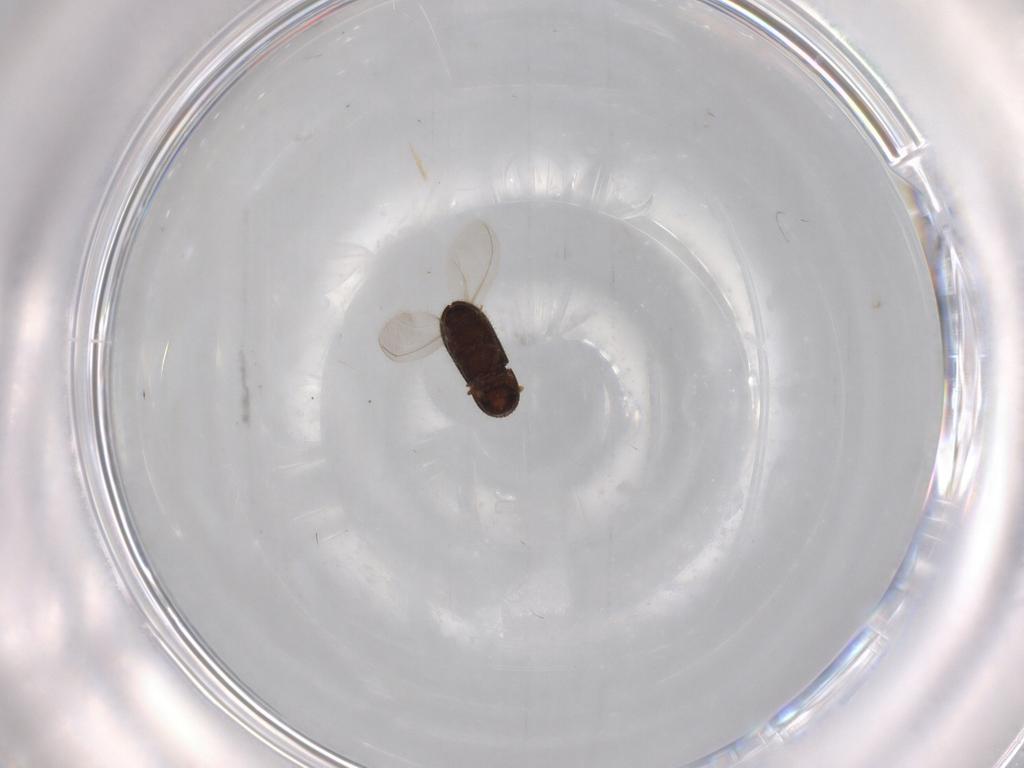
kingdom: Animalia
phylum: Arthropoda
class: Insecta
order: Coleoptera
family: Curculionidae
